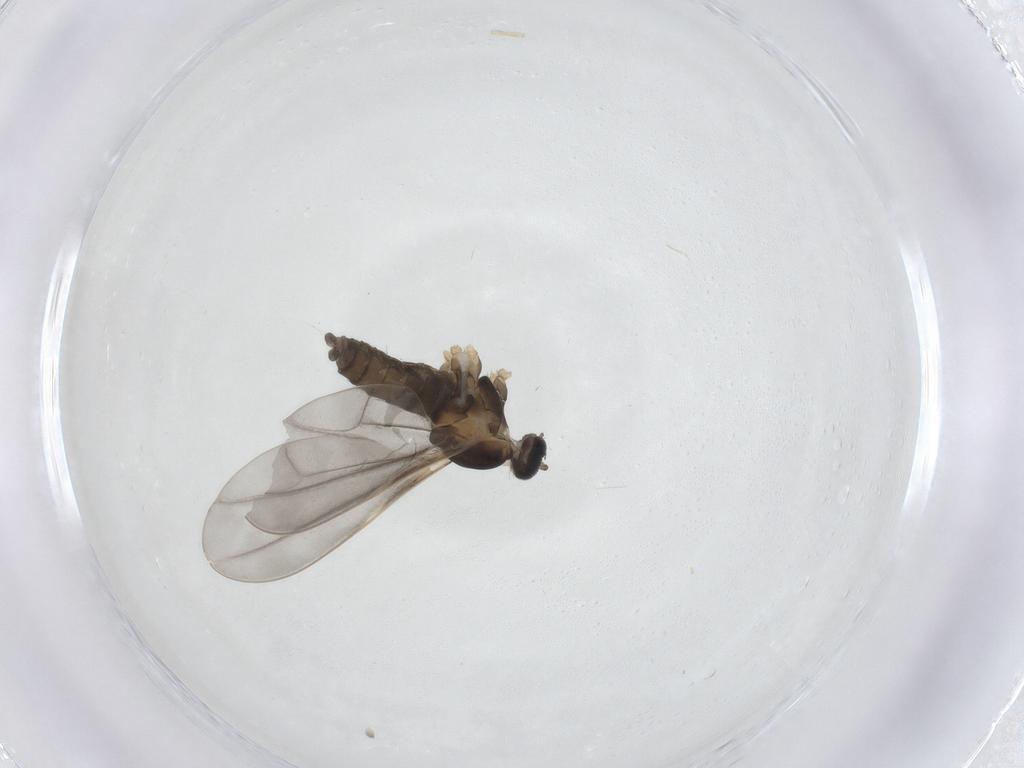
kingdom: Animalia
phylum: Arthropoda
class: Insecta
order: Diptera
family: Cecidomyiidae
